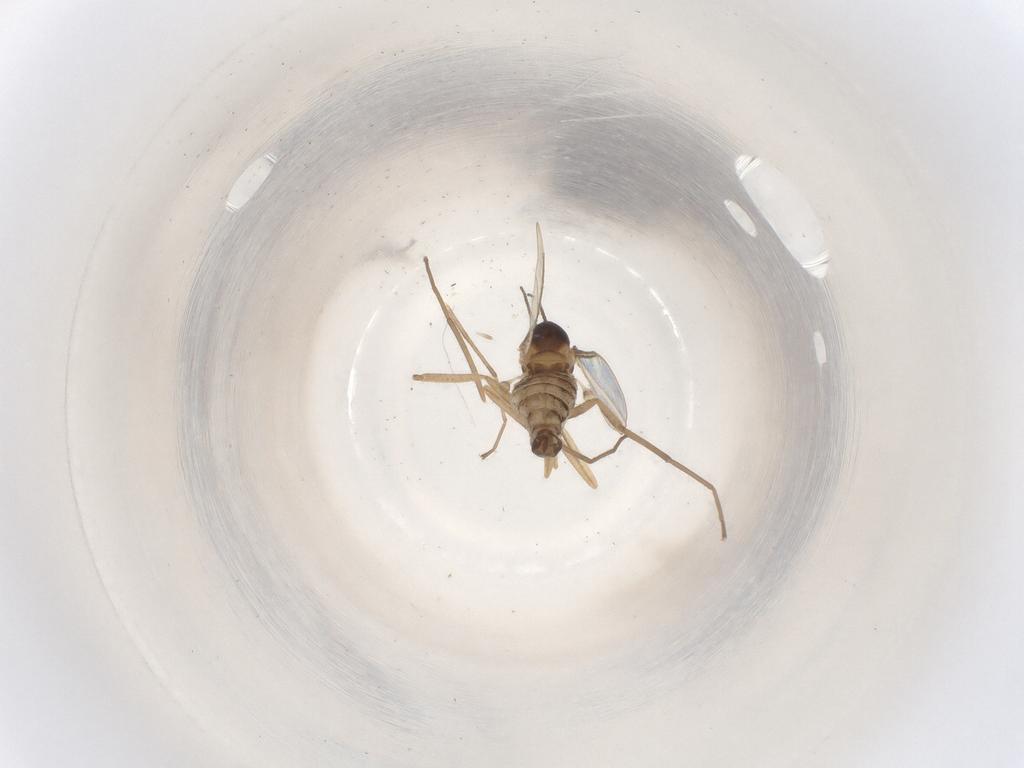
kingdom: Animalia
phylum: Arthropoda
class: Insecta
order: Diptera
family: Cecidomyiidae
